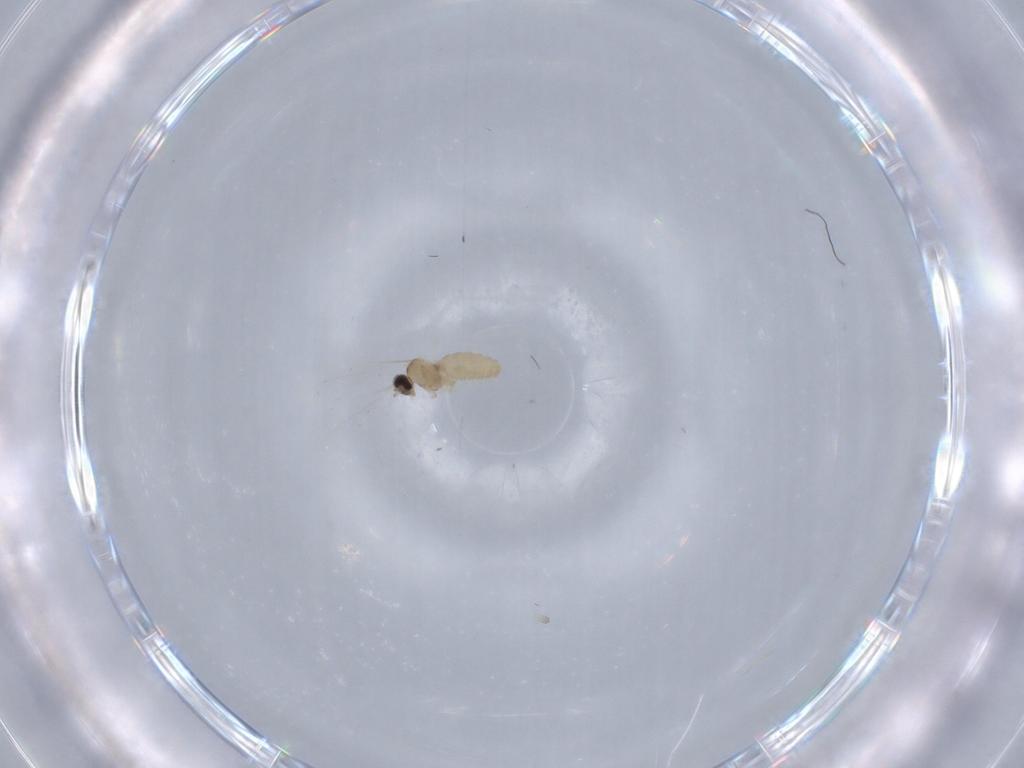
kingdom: Animalia
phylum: Arthropoda
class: Insecta
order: Diptera
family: Cecidomyiidae
